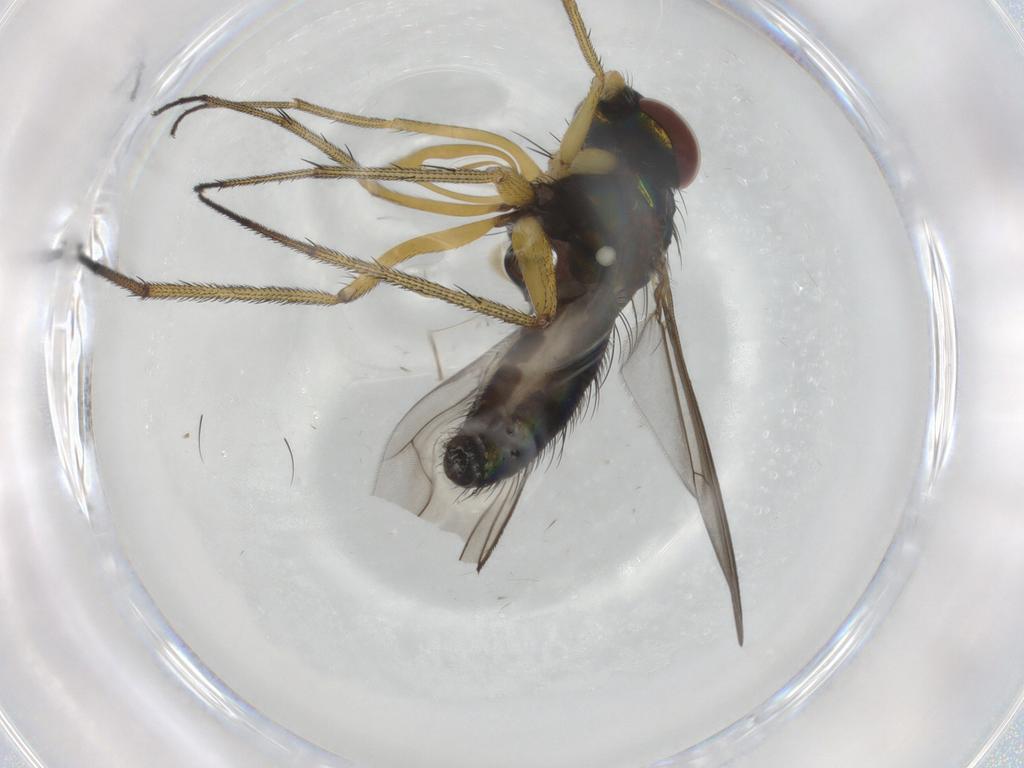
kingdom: Animalia
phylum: Arthropoda
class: Insecta
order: Diptera
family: Dolichopodidae
